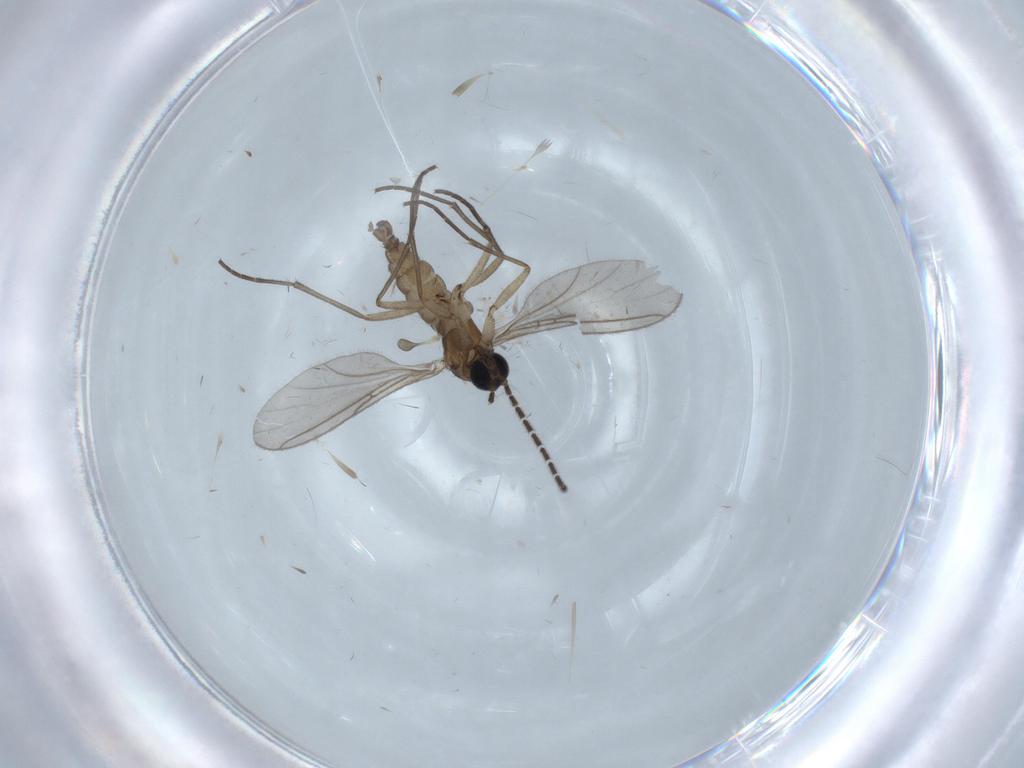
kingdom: Animalia
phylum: Arthropoda
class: Insecta
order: Diptera
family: Sciaridae
